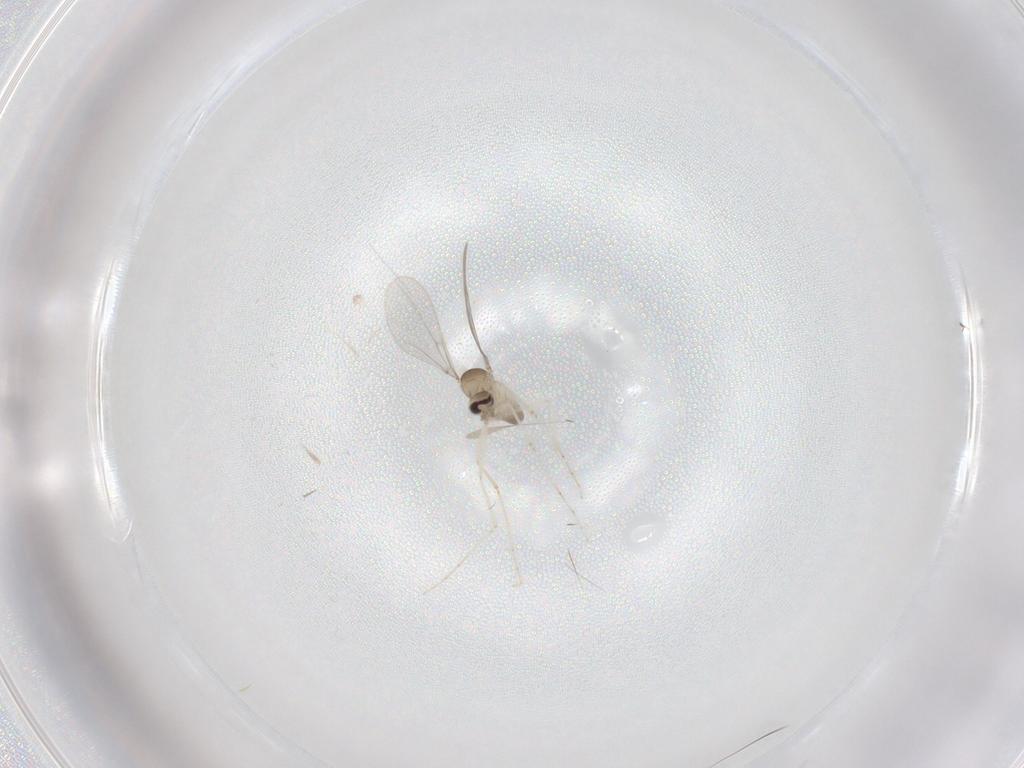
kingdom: Animalia
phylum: Arthropoda
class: Insecta
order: Diptera
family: Cecidomyiidae
